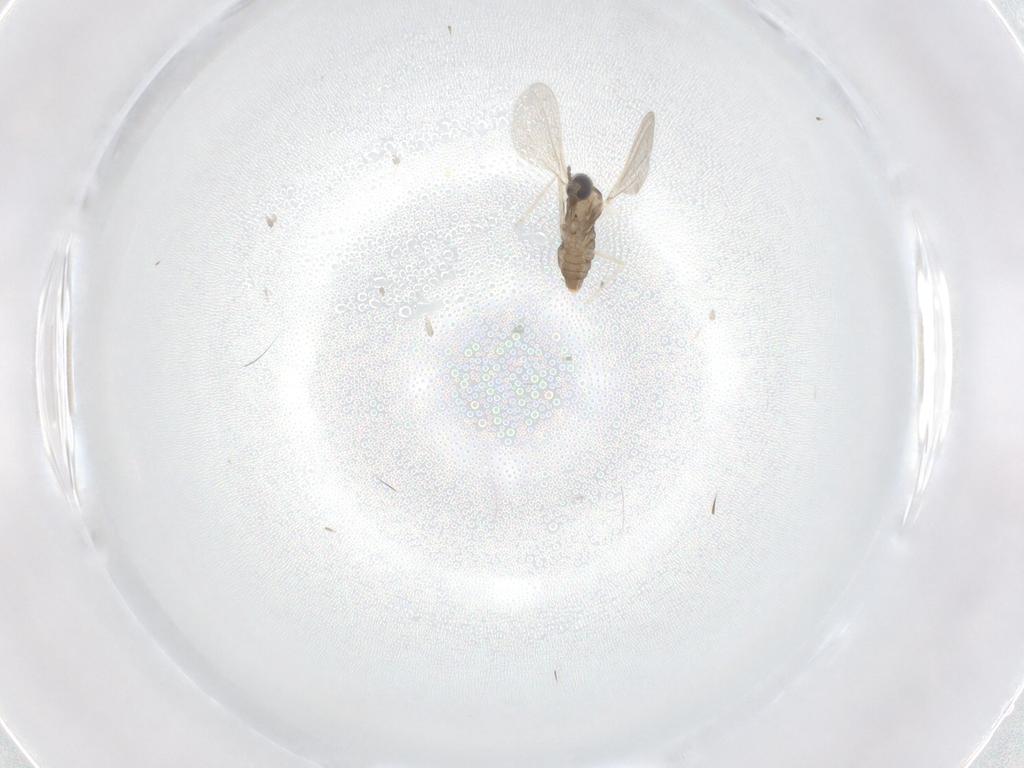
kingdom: Animalia
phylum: Arthropoda
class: Insecta
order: Diptera
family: Cecidomyiidae
